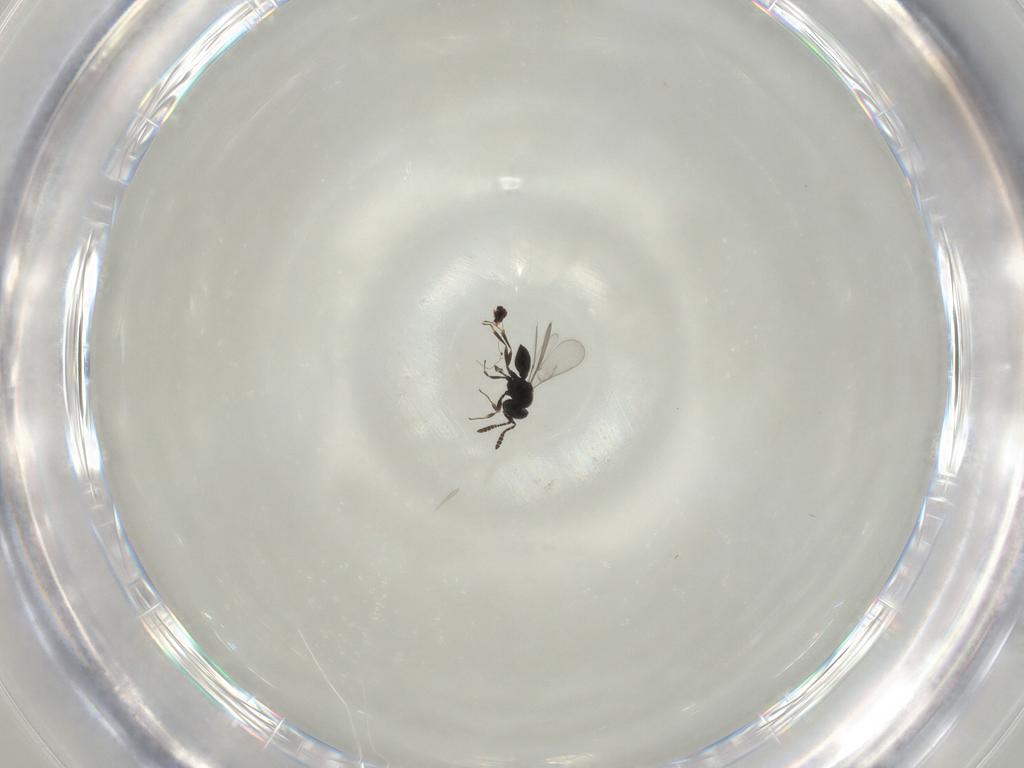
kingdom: Animalia
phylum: Arthropoda
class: Insecta
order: Hymenoptera
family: Scelionidae
